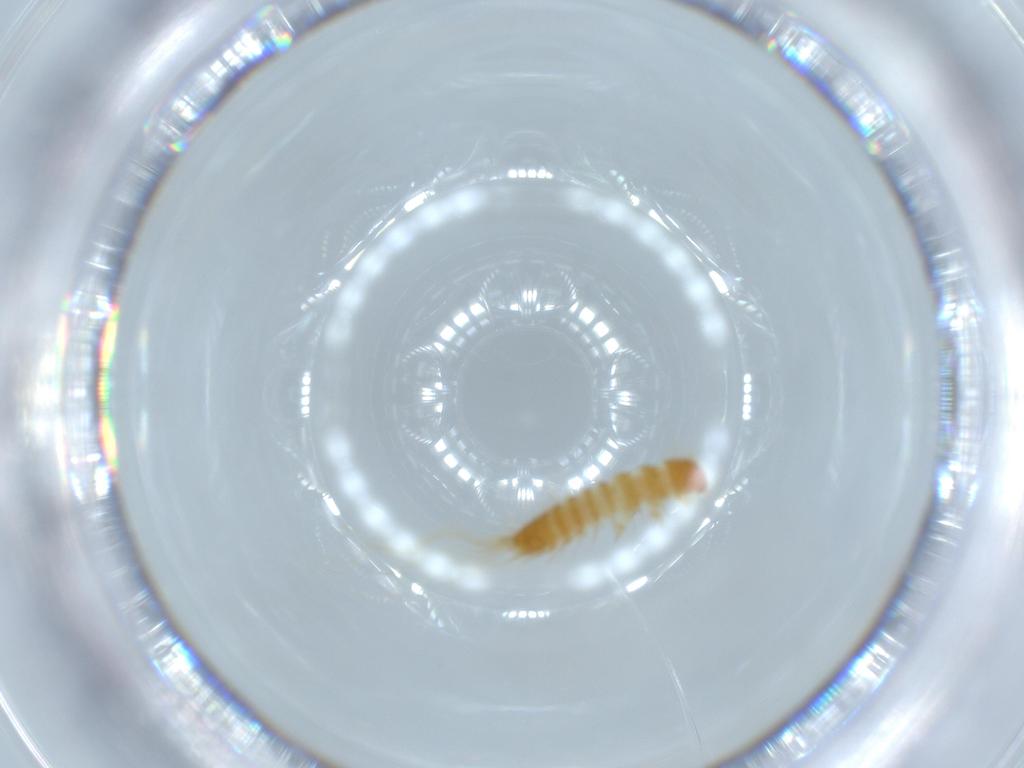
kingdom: Animalia
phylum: Arthropoda
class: Insecta
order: Coleoptera
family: Dermestidae
